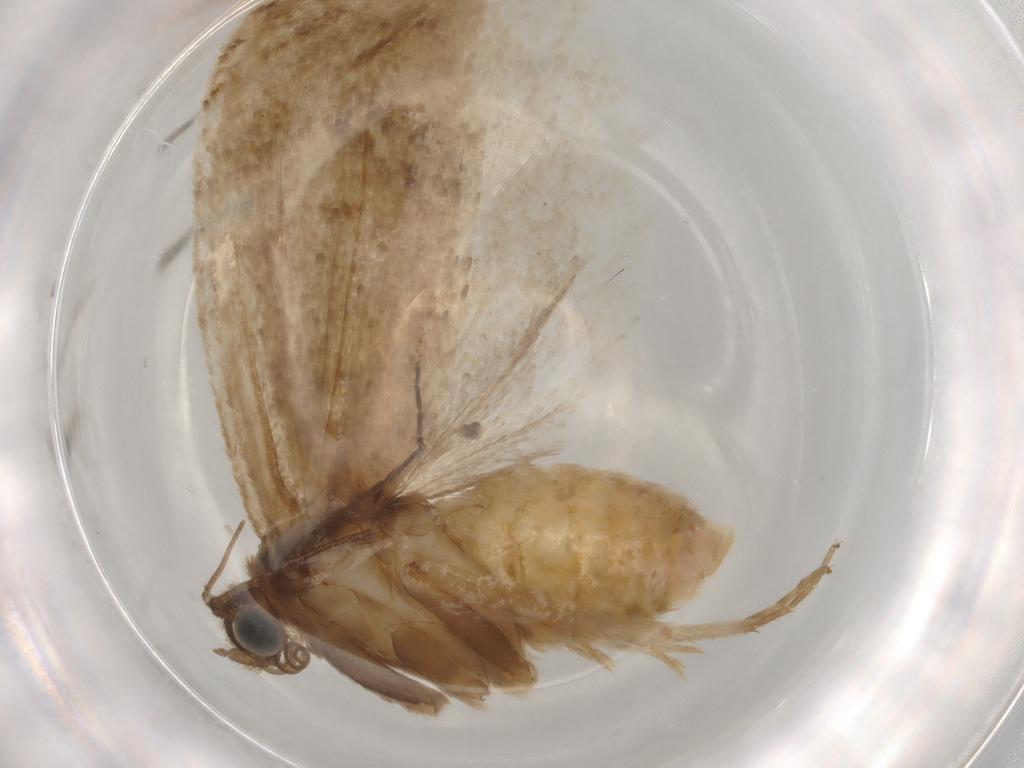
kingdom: Animalia
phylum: Arthropoda
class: Insecta
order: Lepidoptera
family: Tortricidae
